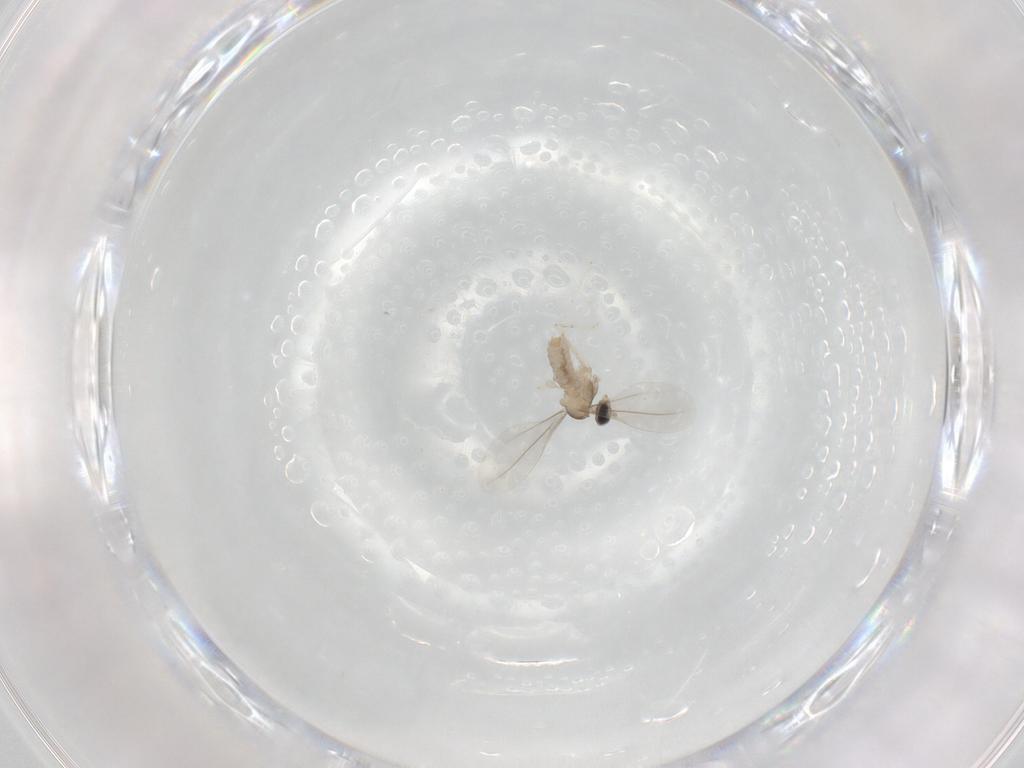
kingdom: Animalia
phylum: Arthropoda
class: Insecta
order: Diptera
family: Cecidomyiidae
